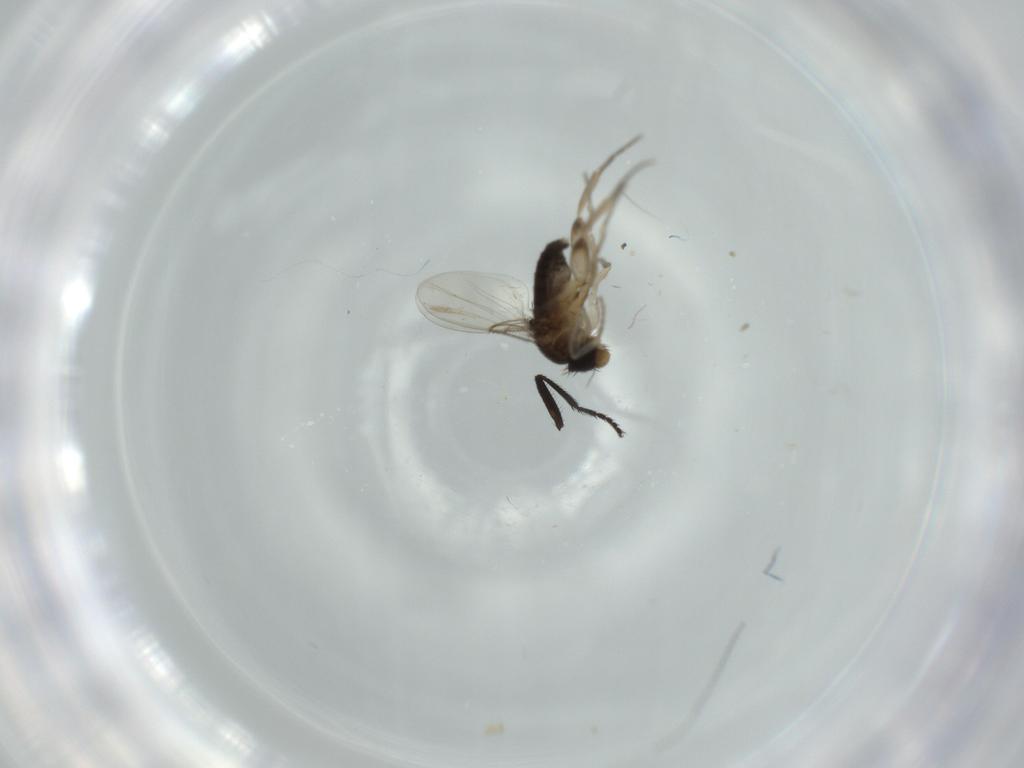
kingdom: Animalia
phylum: Arthropoda
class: Insecta
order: Diptera
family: Phoridae
